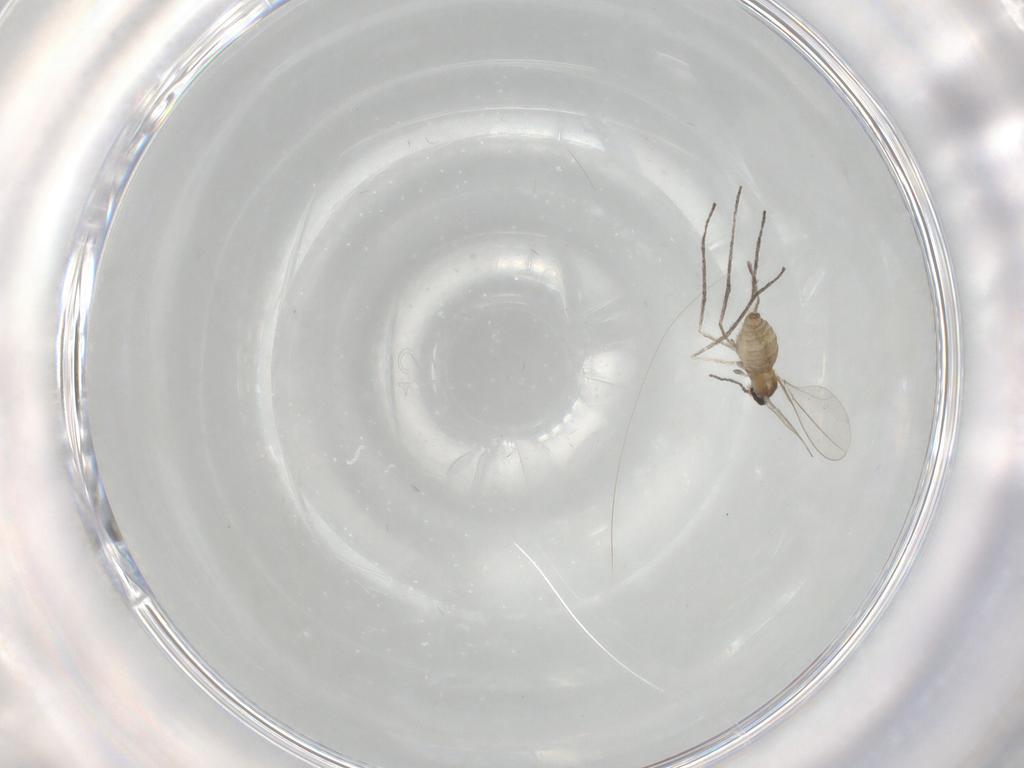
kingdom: Animalia
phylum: Arthropoda
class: Insecta
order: Diptera
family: Cecidomyiidae
